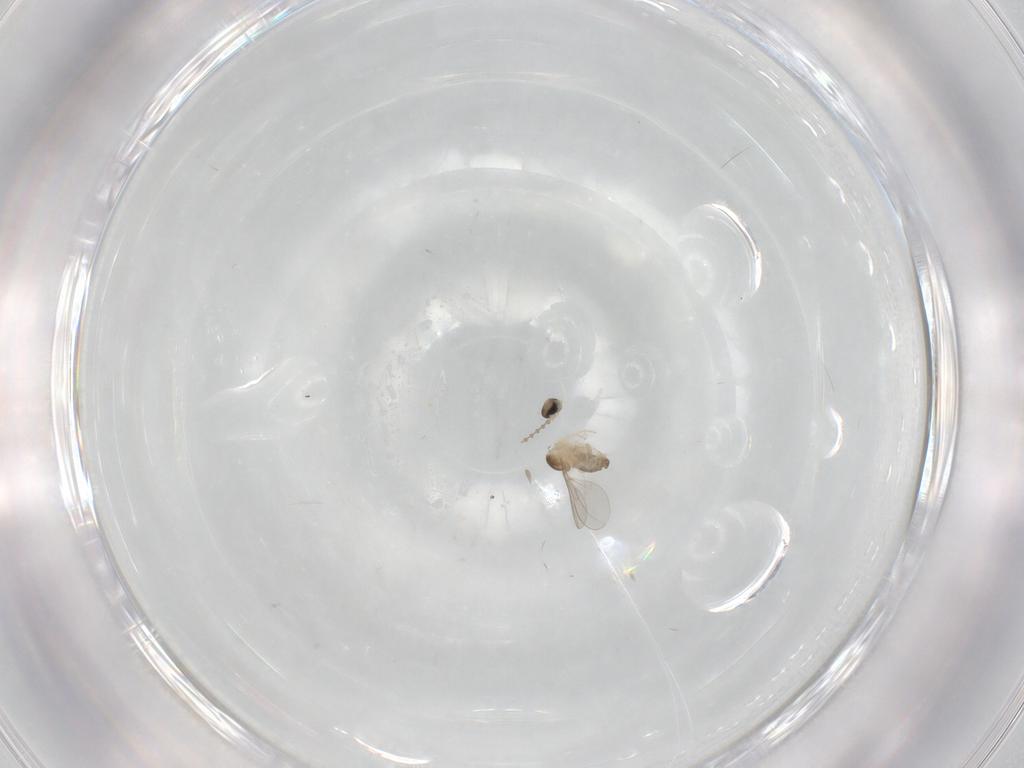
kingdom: Animalia
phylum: Arthropoda
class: Insecta
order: Diptera
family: Cecidomyiidae
